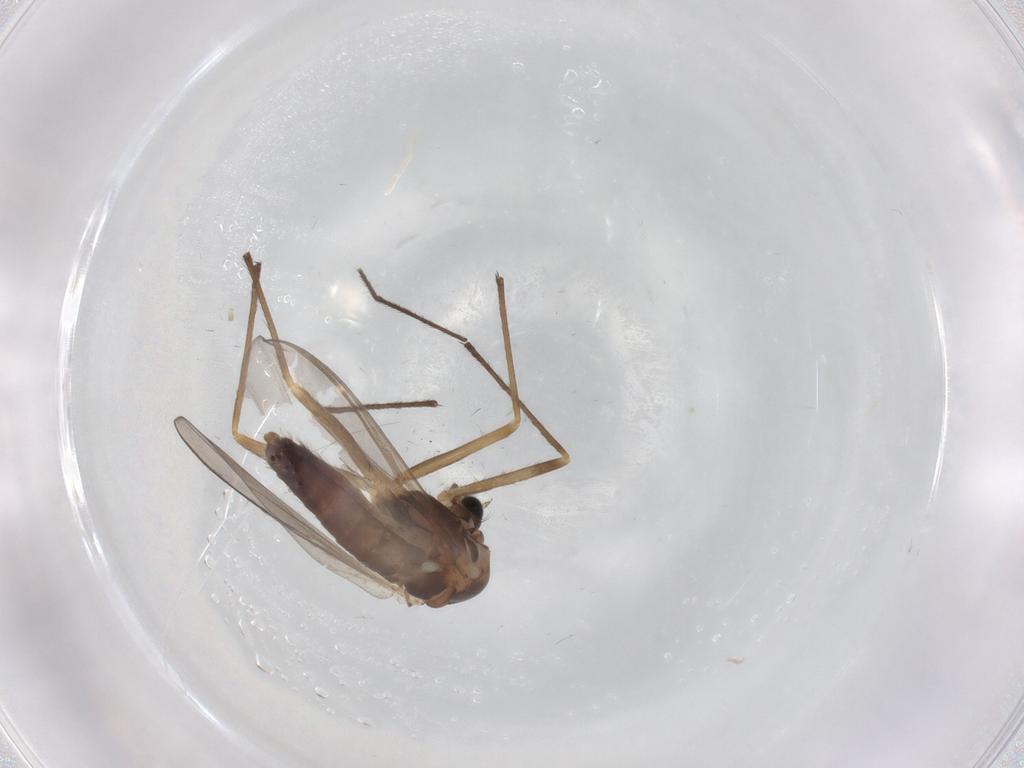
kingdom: Animalia
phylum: Arthropoda
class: Insecta
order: Diptera
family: Chironomidae
